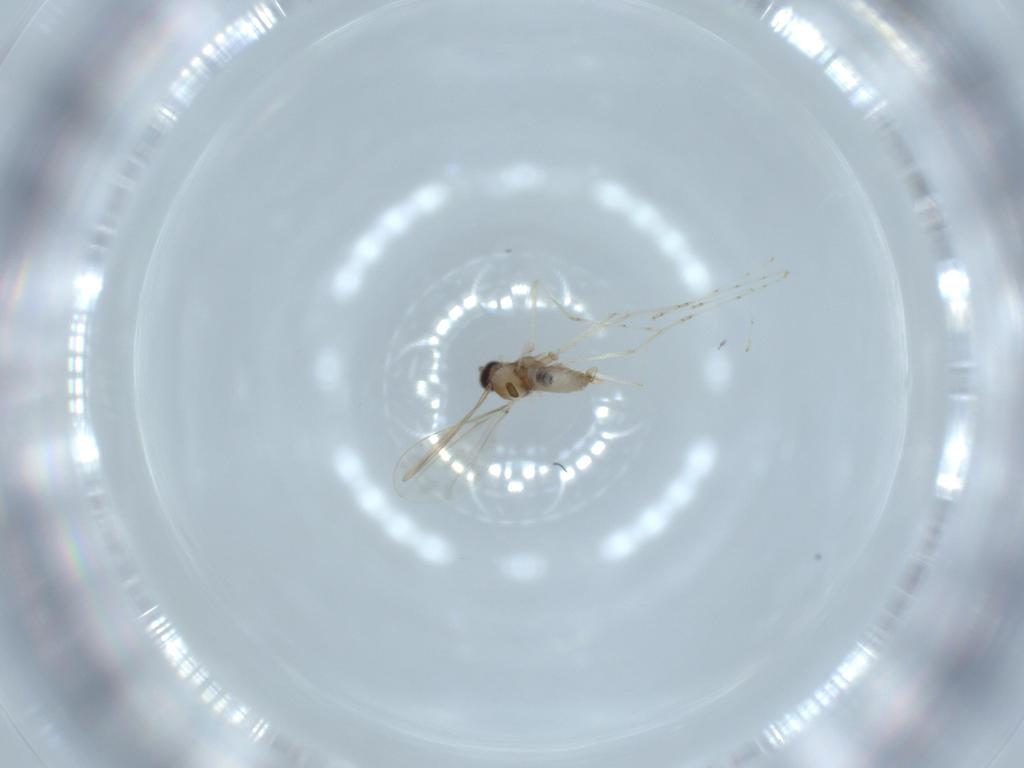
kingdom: Animalia
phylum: Arthropoda
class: Insecta
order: Diptera
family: Cecidomyiidae
